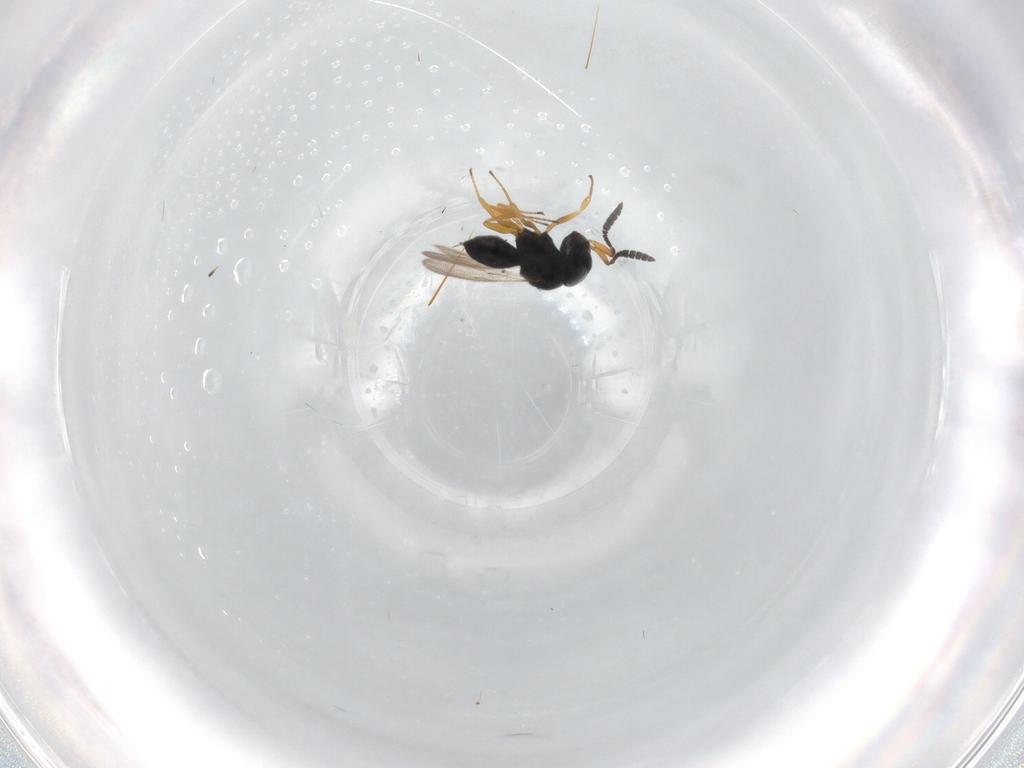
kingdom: Animalia
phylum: Arthropoda
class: Insecta
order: Hymenoptera
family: Scelionidae
